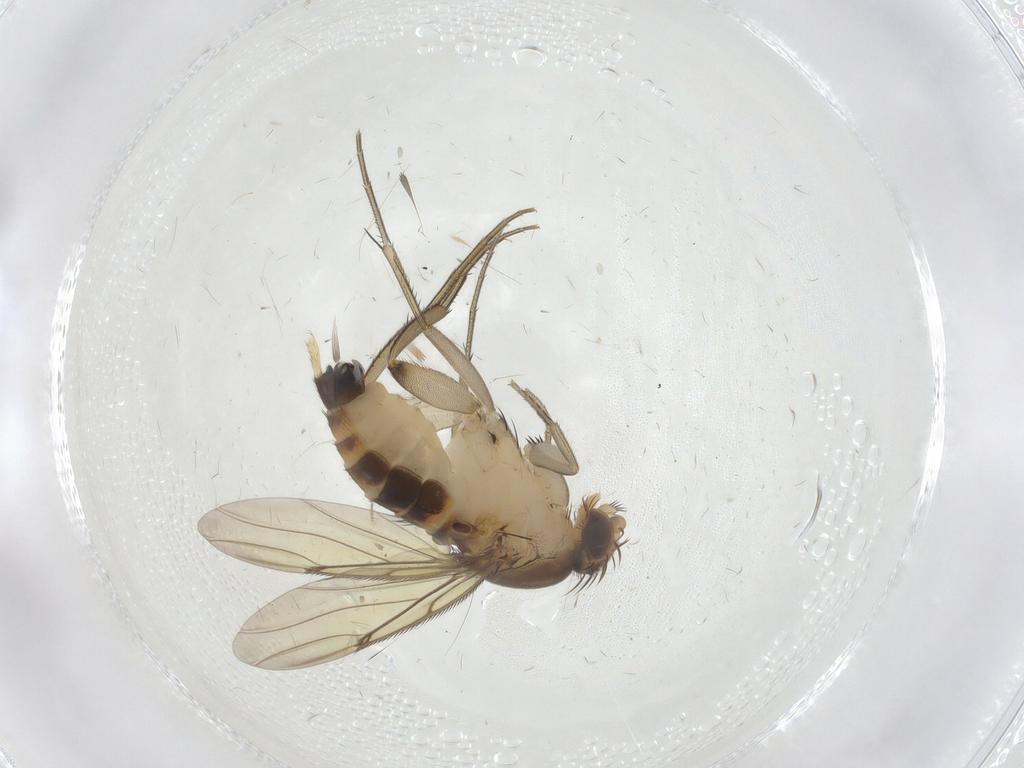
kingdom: Animalia
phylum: Arthropoda
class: Insecta
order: Diptera
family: Phoridae
